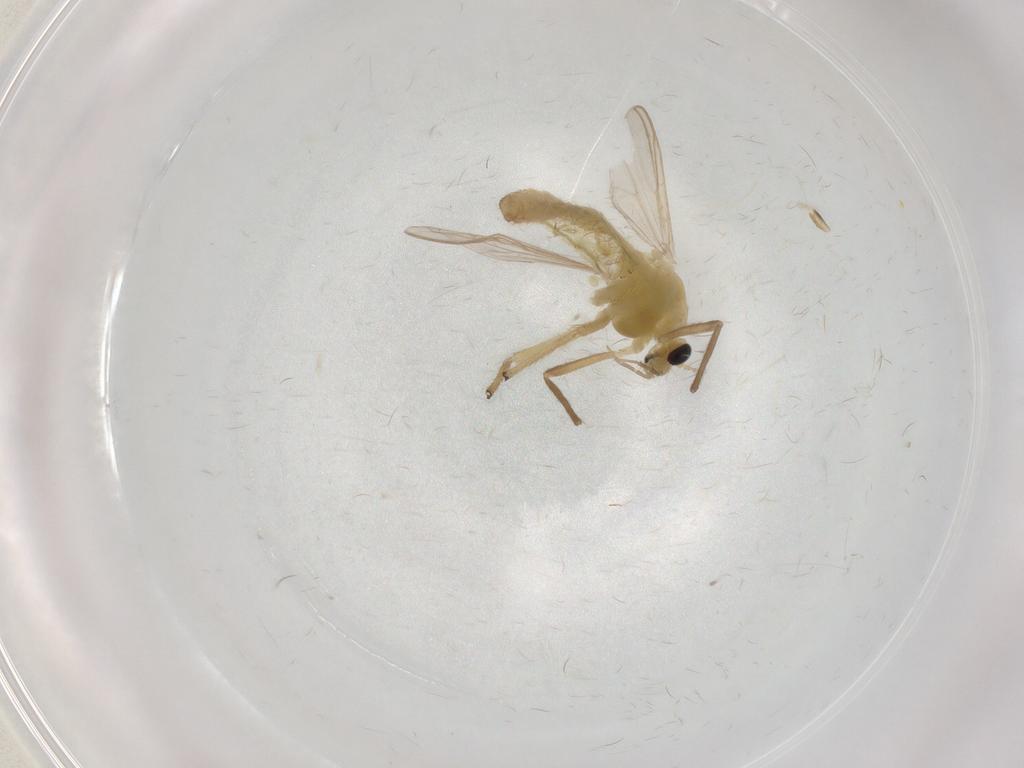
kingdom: Animalia
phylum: Arthropoda
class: Insecta
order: Diptera
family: Chironomidae
